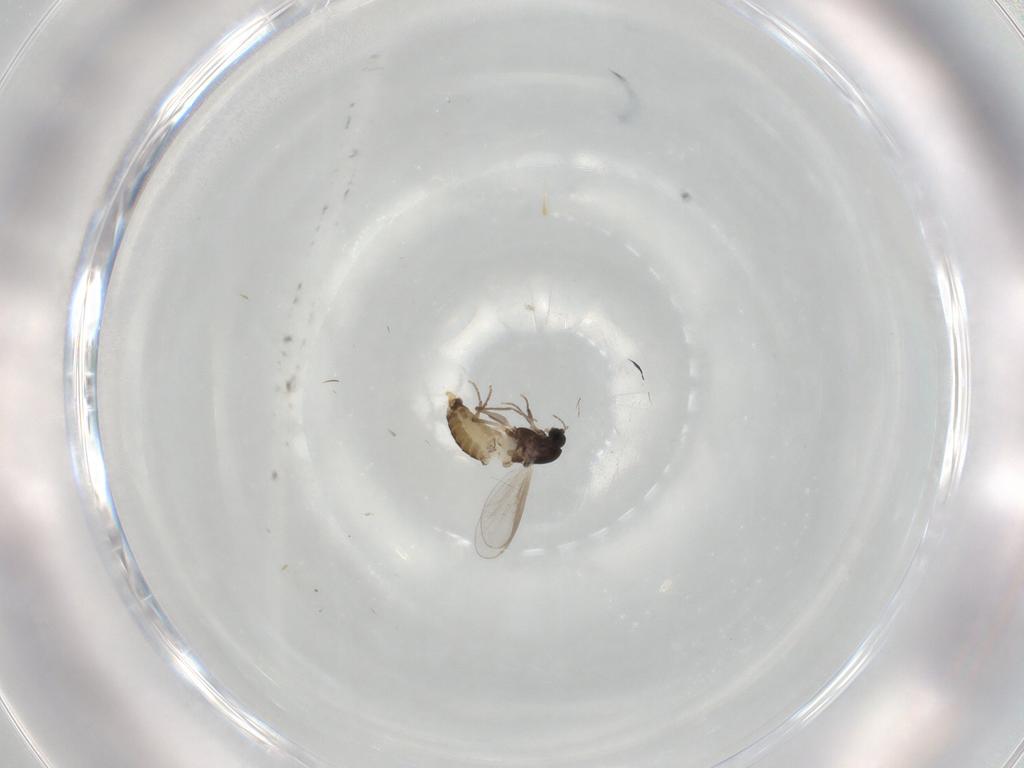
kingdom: Animalia
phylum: Arthropoda
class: Insecta
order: Diptera
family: Chironomidae
